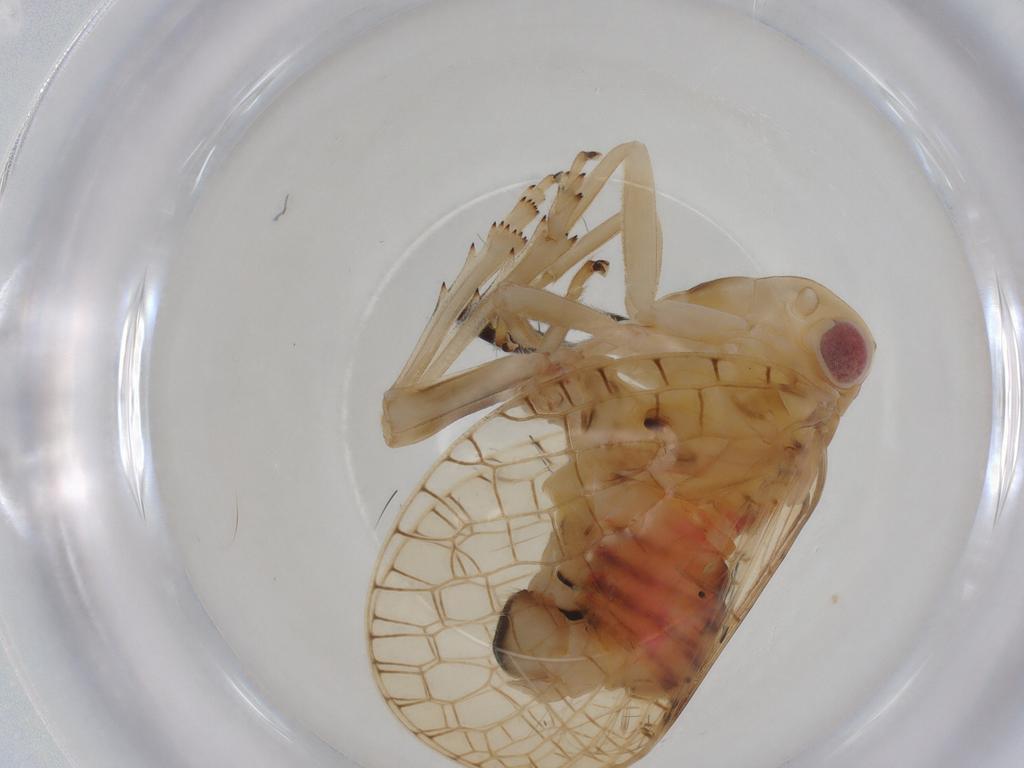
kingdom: Animalia
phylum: Arthropoda
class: Insecta
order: Hemiptera
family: Tropiduchidae
